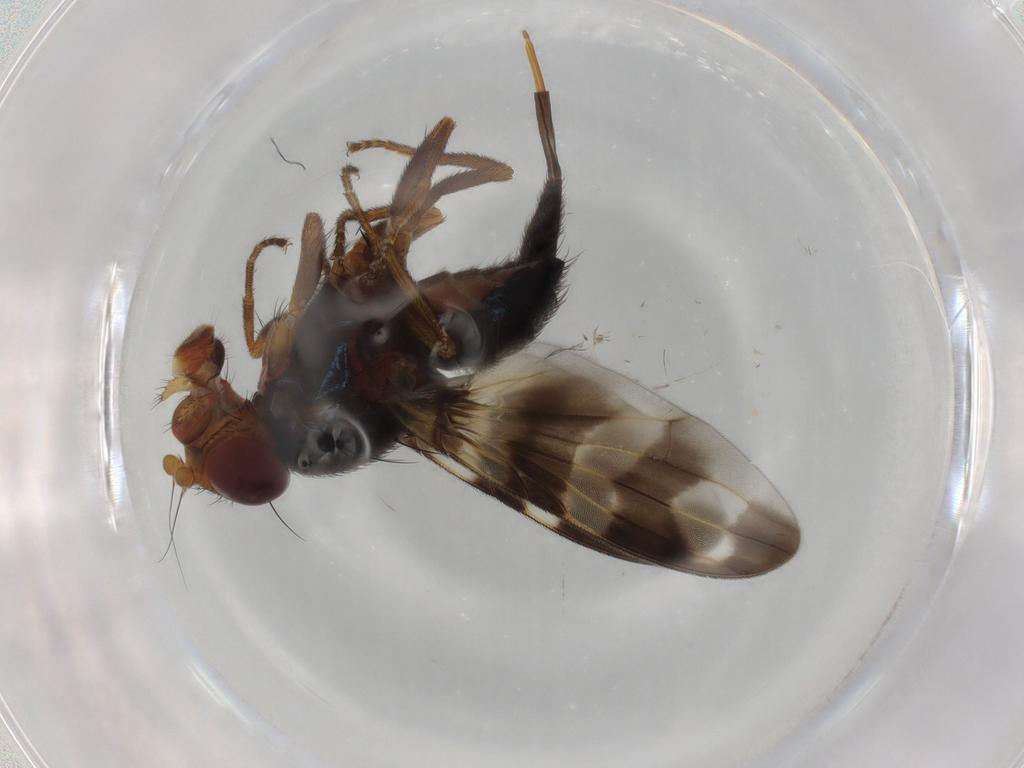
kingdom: Animalia
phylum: Arthropoda
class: Insecta
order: Diptera
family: Ulidiidae
